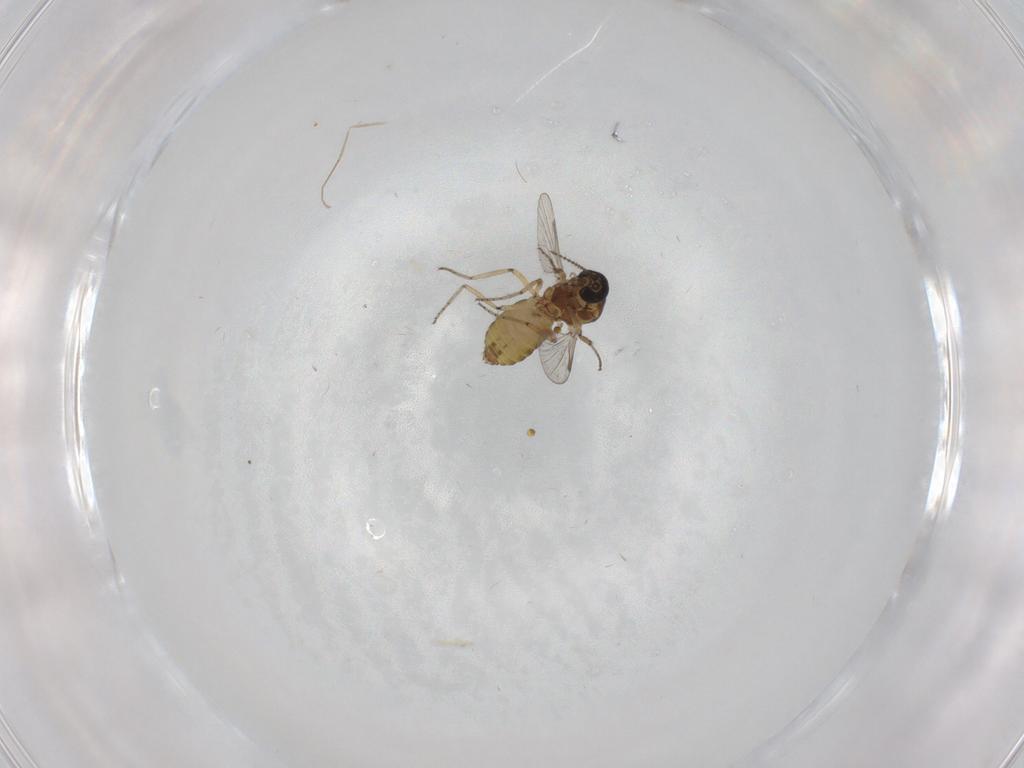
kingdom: Animalia
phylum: Arthropoda
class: Insecta
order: Diptera
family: Ceratopogonidae
